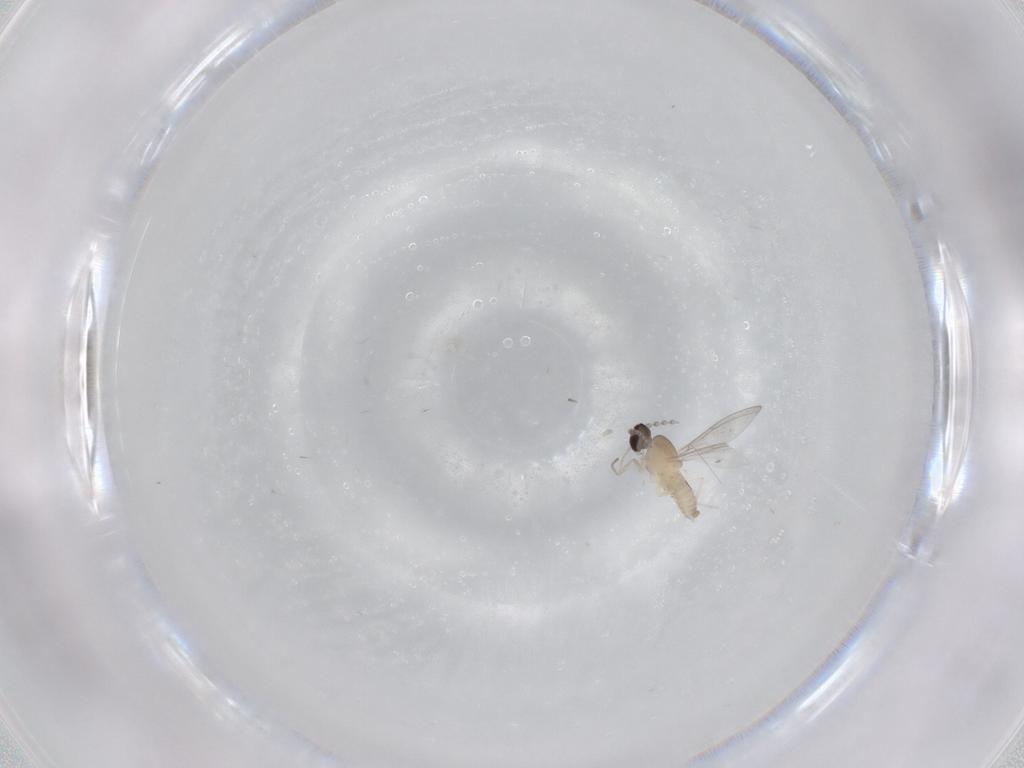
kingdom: Animalia
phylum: Arthropoda
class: Insecta
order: Diptera
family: Cecidomyiidae
